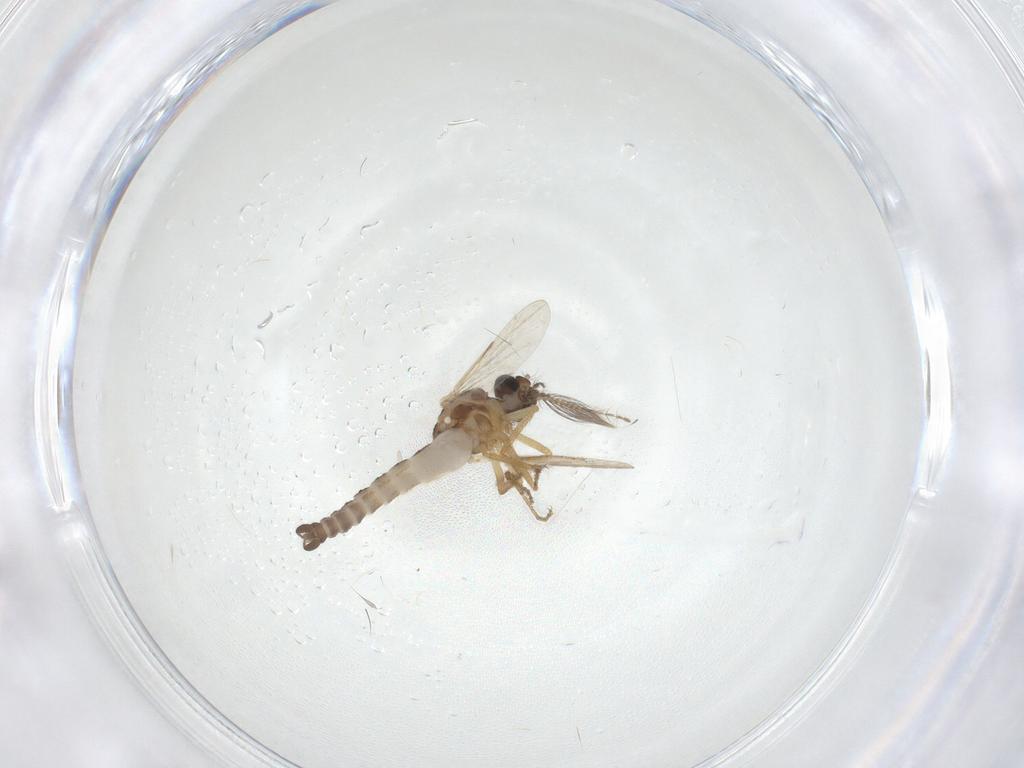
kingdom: Animalia
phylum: Arthropoda
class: Insecta
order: Diptera
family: Ceratopogonidae
